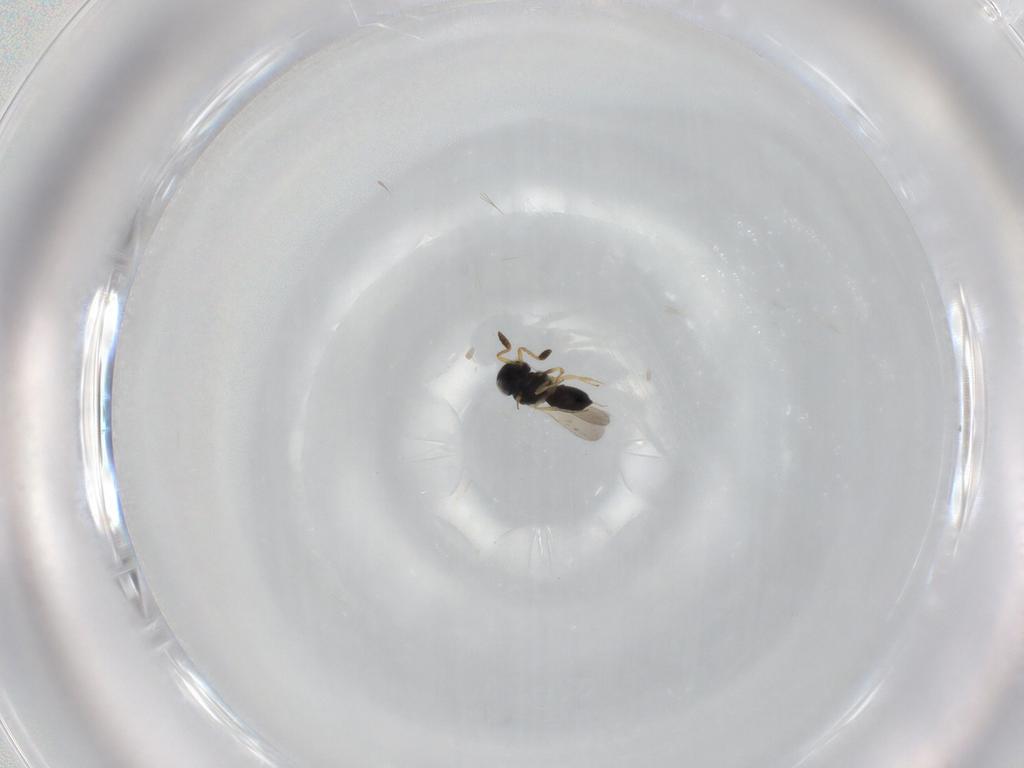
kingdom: Animalia
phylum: Arthropoda
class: Insecta
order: Hymenoptera
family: Scelionidae
